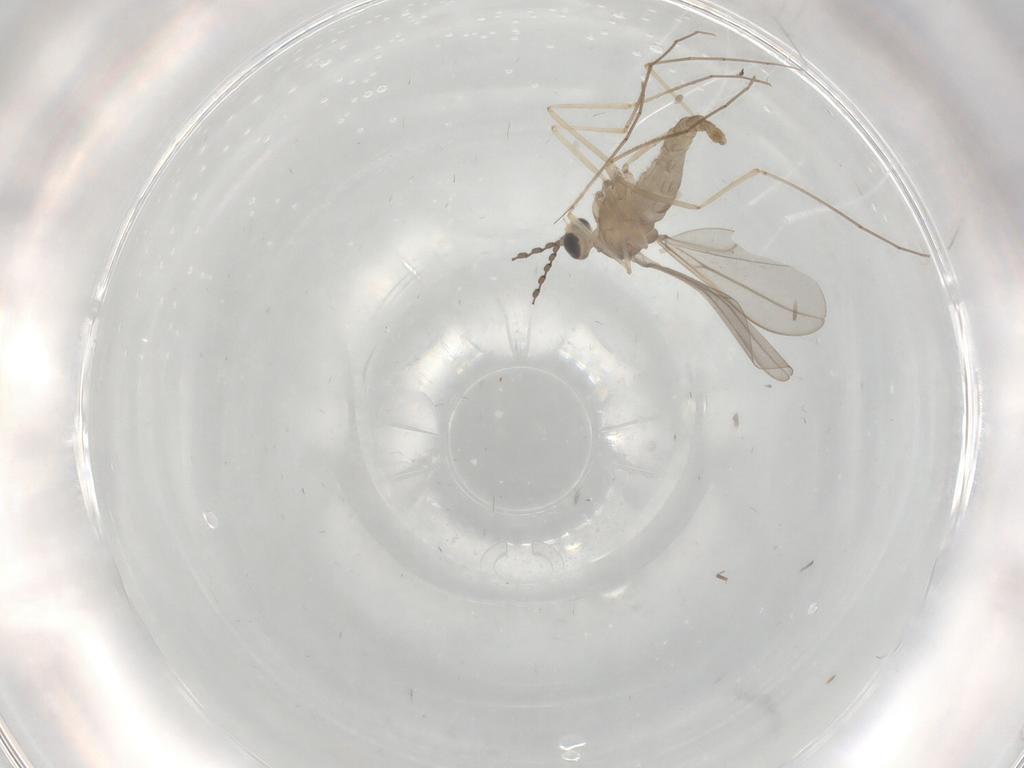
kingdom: Animalia
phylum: Arthropoda
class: Insecta
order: Diptera
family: Cecidomyiidae
